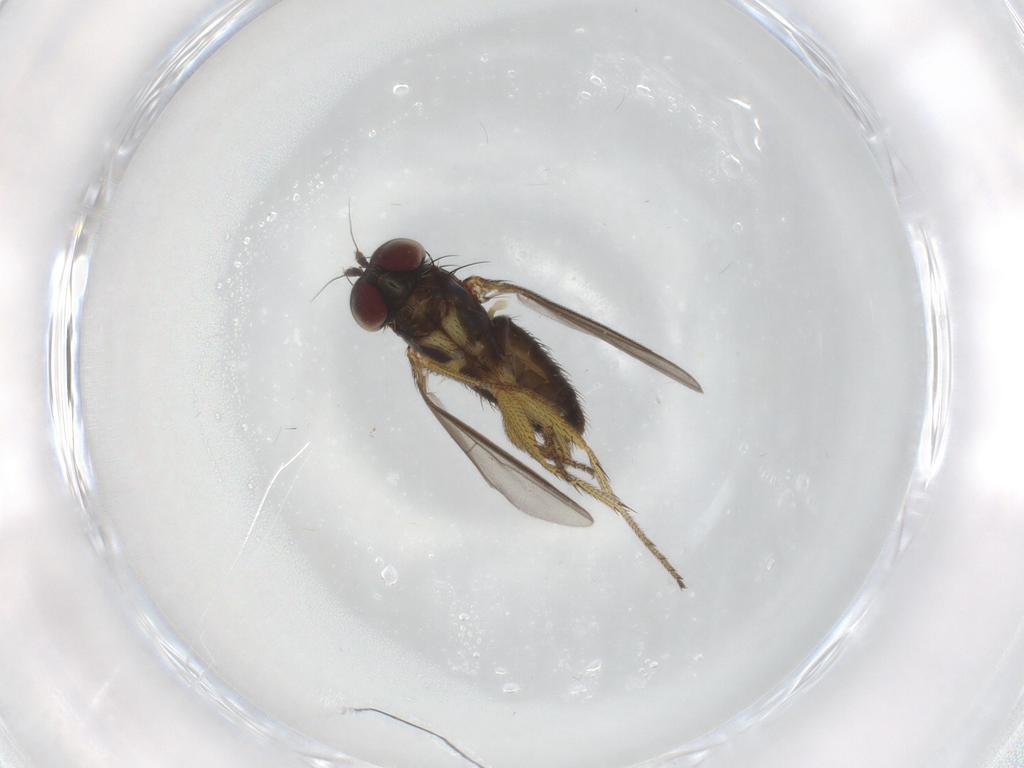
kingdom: Animalia
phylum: Arthropoda
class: Insecta
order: Diptera
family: Dolichopodidae
